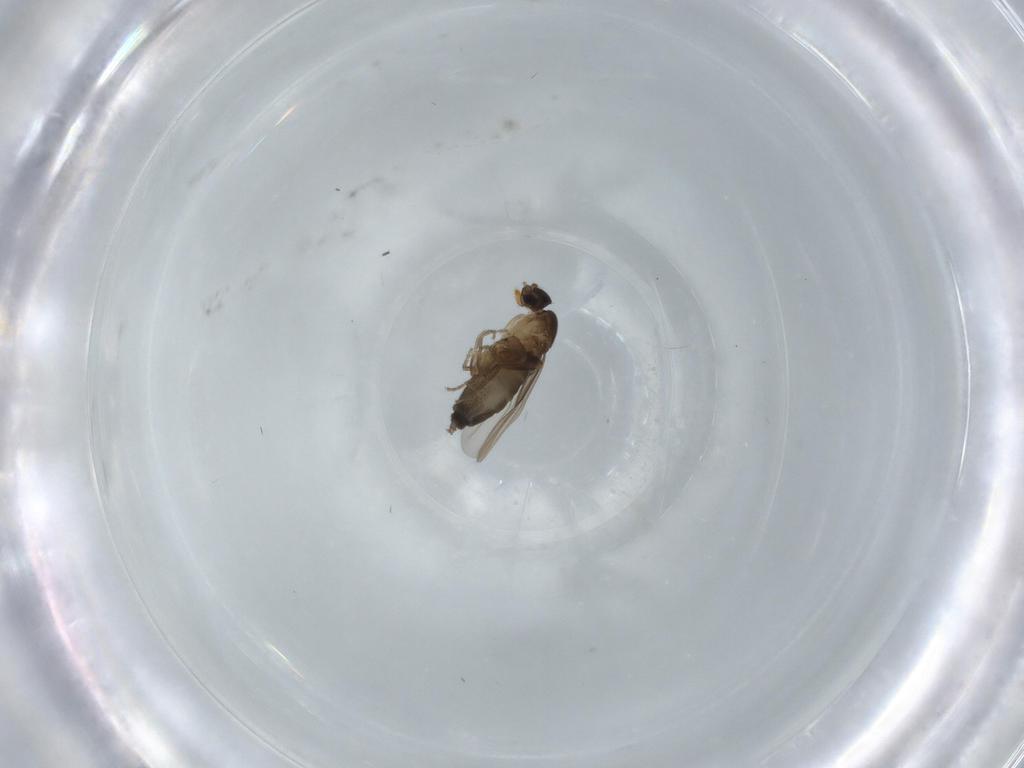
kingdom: Animalia
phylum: Arthropoda
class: Insecta
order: Diptera
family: Phoridae
